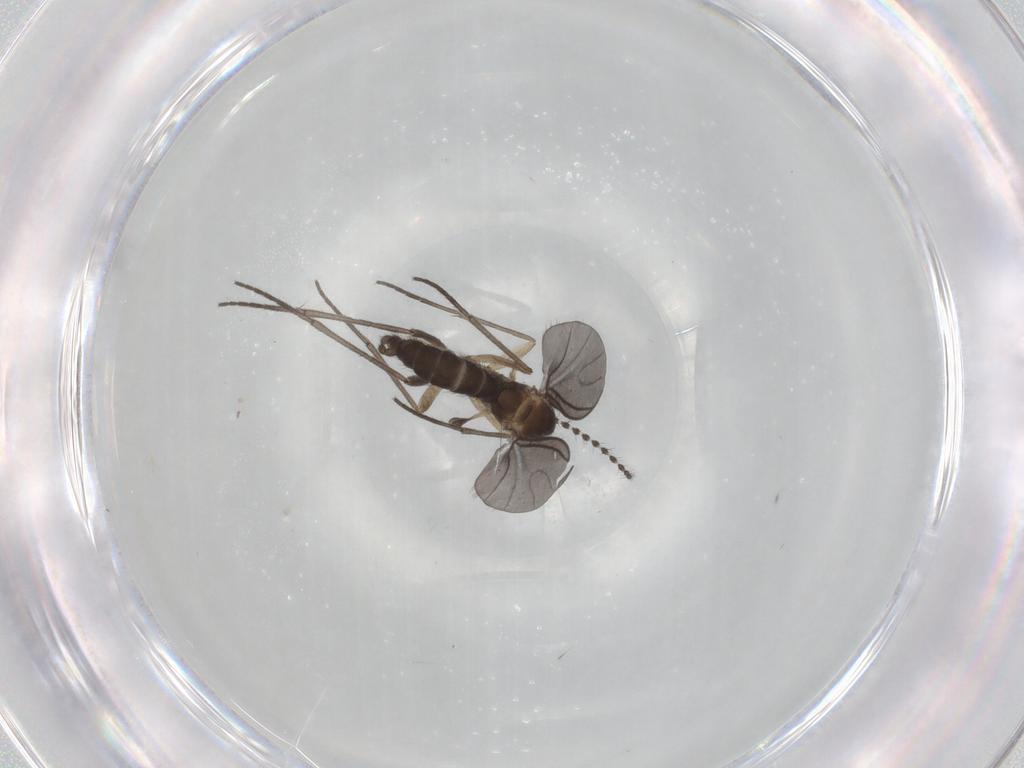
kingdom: Animalia
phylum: Arthropoda
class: Insecta
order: Diptera
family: Sciaridae
